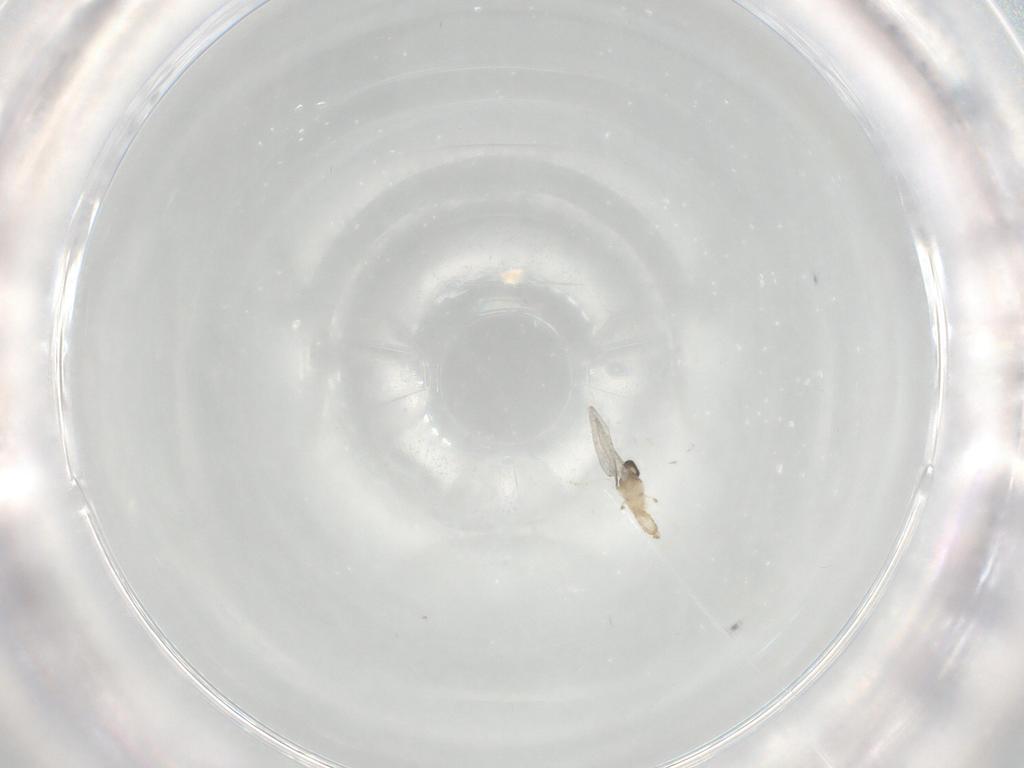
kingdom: Animalia
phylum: Arthropoda
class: Insecta
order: Diptera
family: Cecidomyiidae
